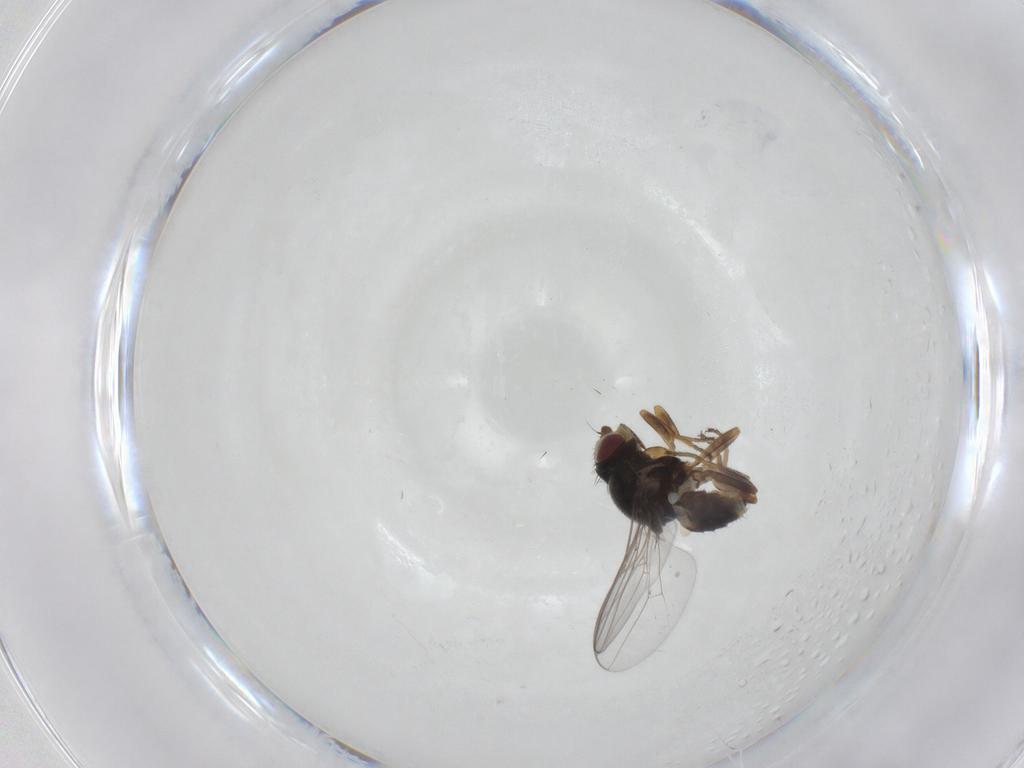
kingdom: Animalia
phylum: Arthropoda
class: Insecta
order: Diptera
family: Chloropidae
